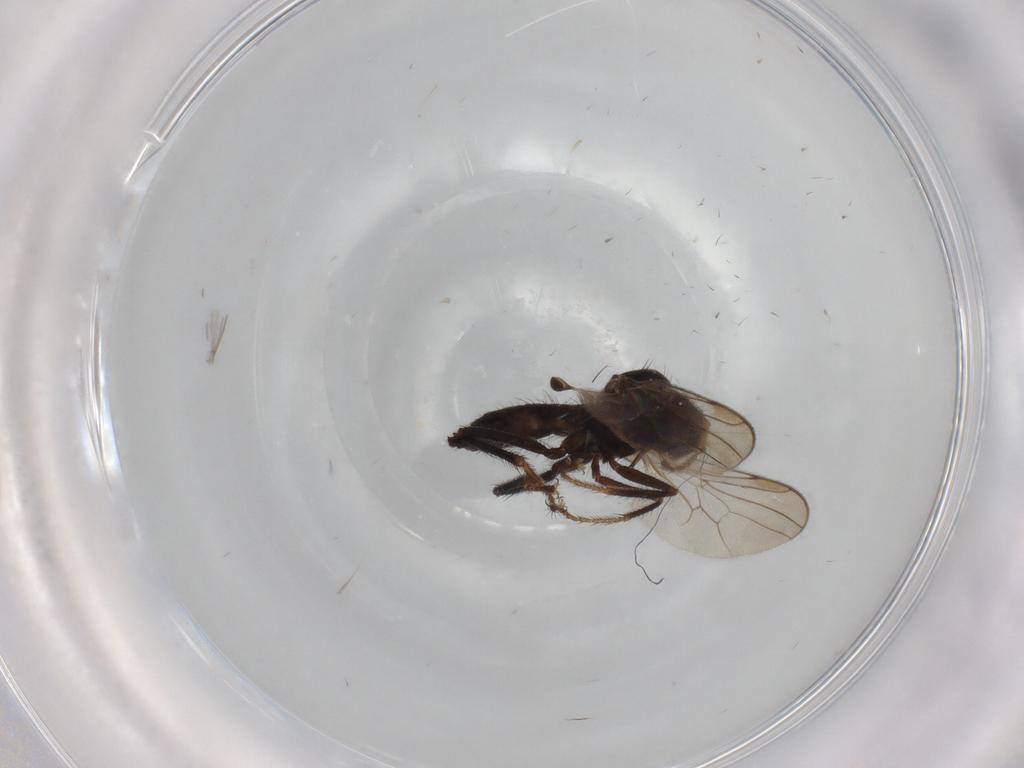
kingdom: Animalia
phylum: Arthropoda
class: Insecta
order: Diptera
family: Hybotidae
